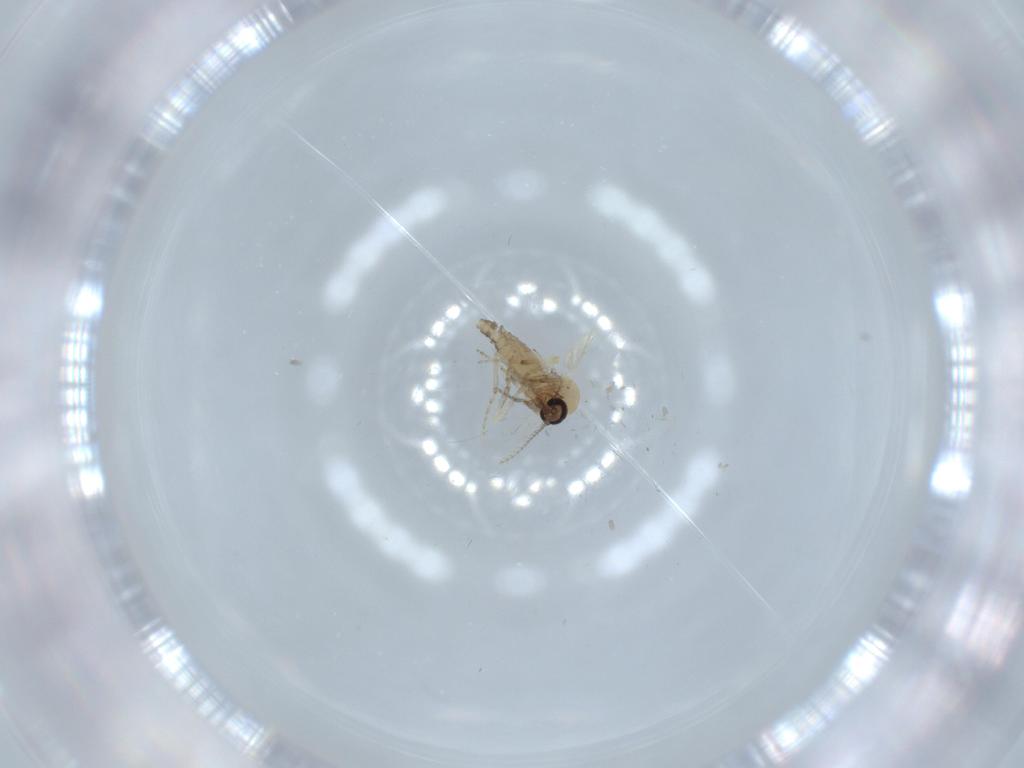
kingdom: Animalia
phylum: Arthropoda
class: Insecta
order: Diptera
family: Ceratopogonidae
